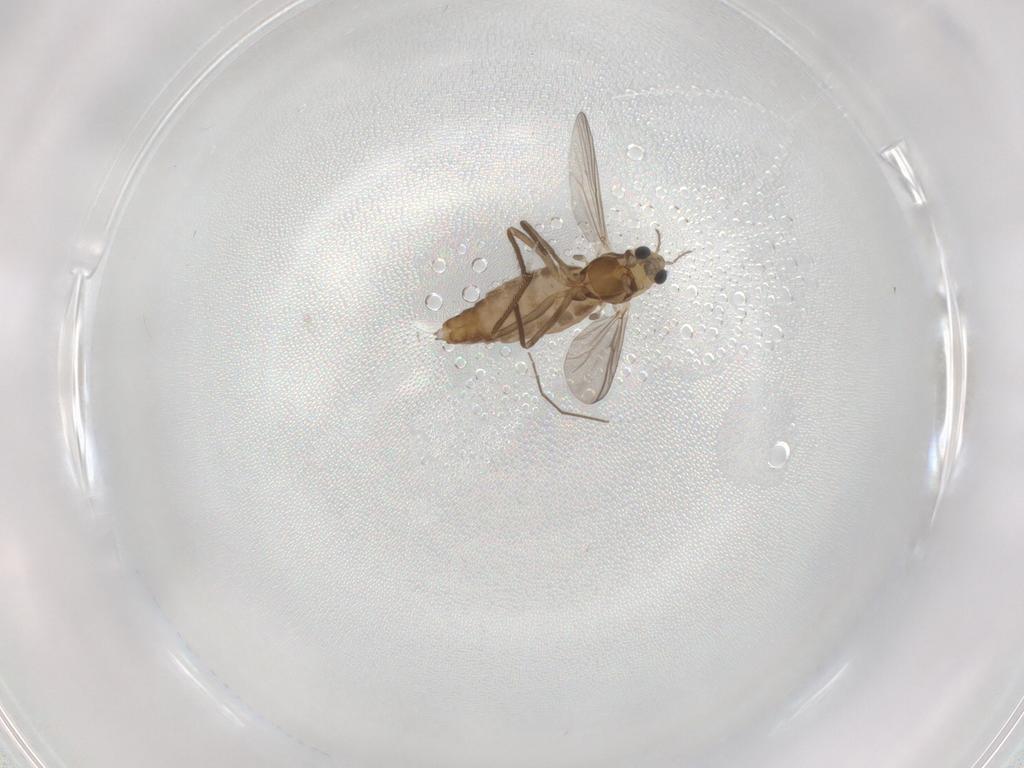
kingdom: Animalia
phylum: Arthropoda
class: Insecta
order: Diptera
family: Chironomidae
